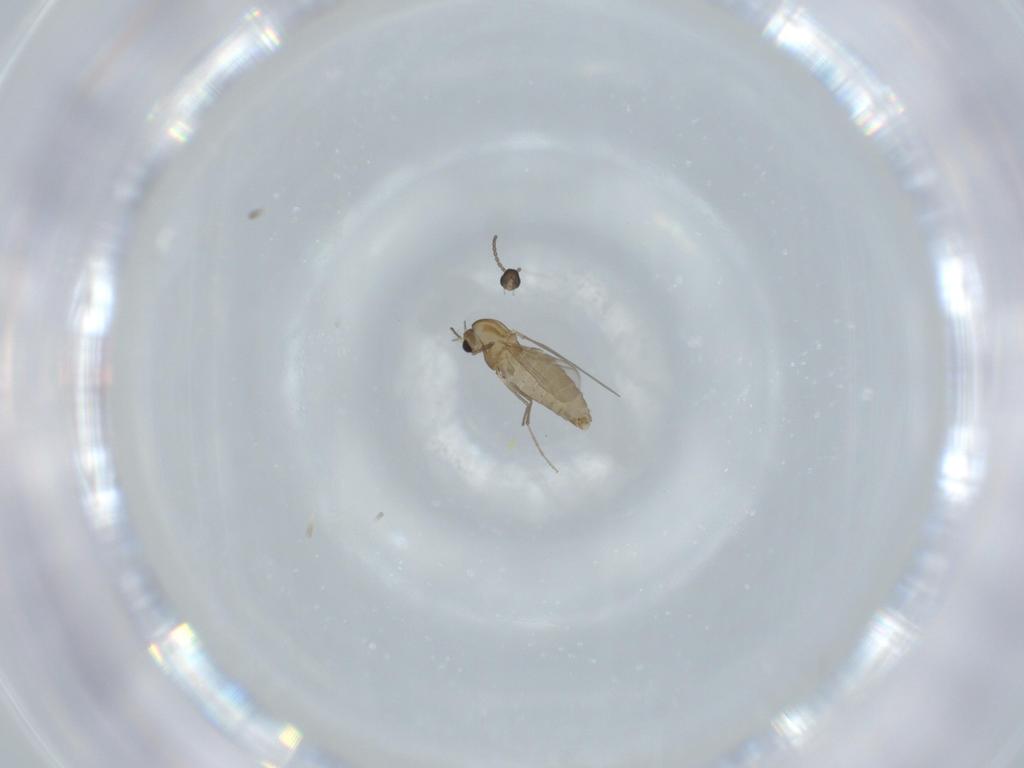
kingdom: Animalia
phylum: Arthropoda
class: Insecta
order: Diptera
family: Chironomidae
